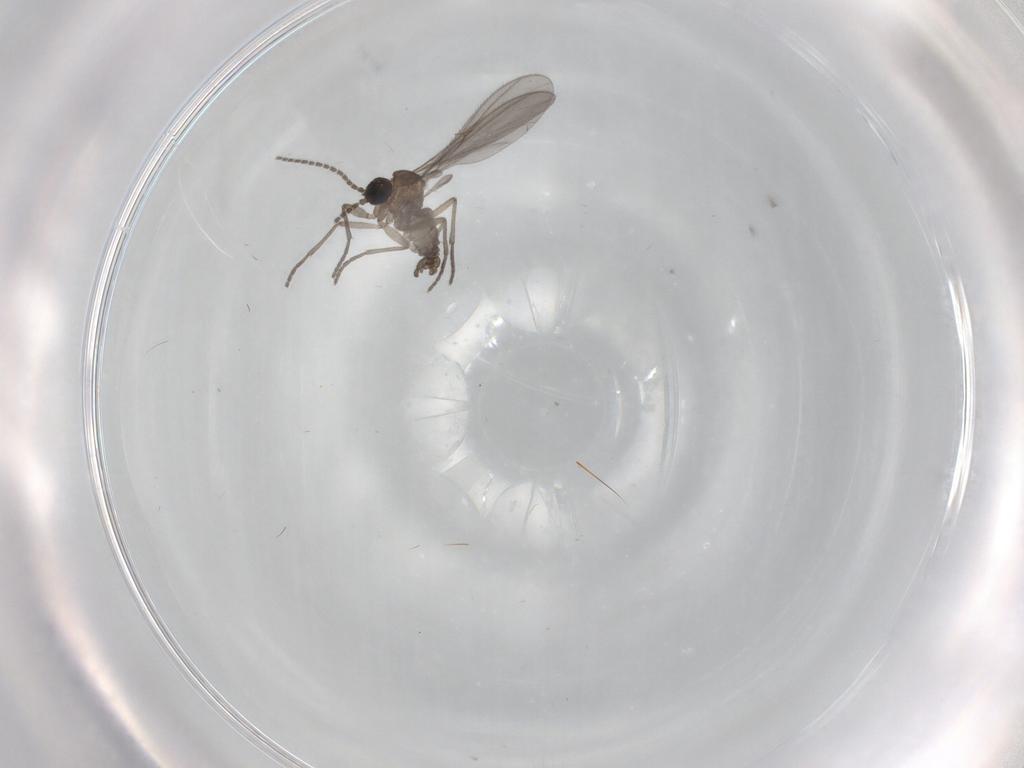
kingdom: Animalia
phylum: Arthropoda
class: Insecta
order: Diptera
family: Sciaridae
